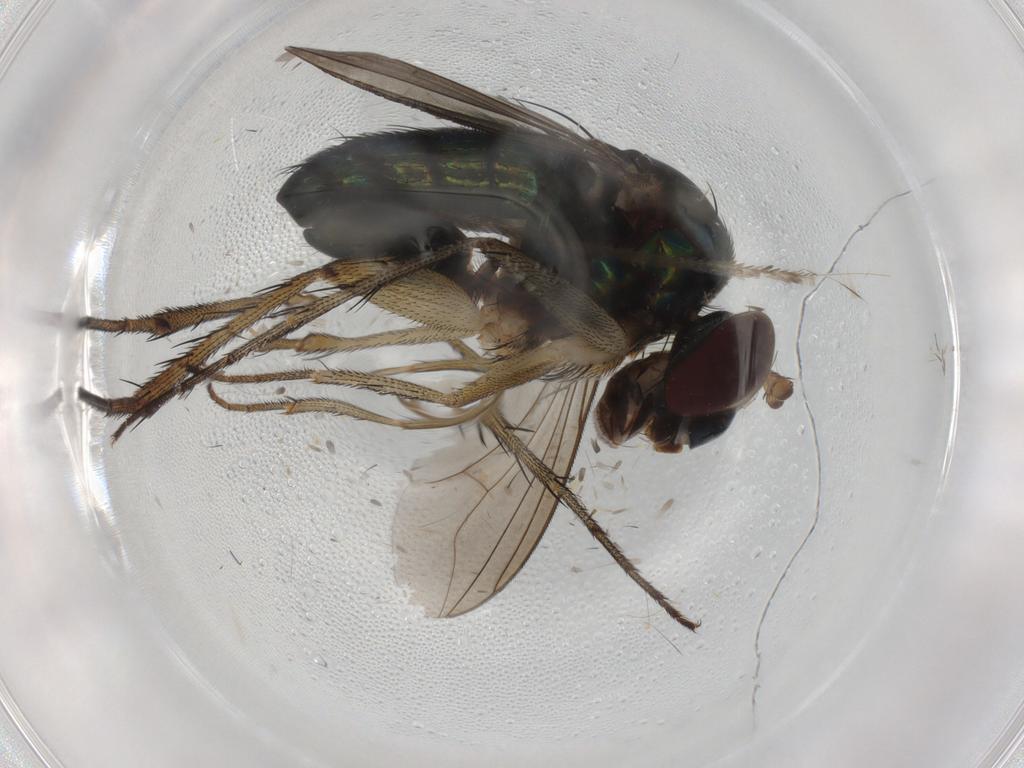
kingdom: Animalia
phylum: Arthropoda
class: Insecta
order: Diptera
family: Dolichopodidae
